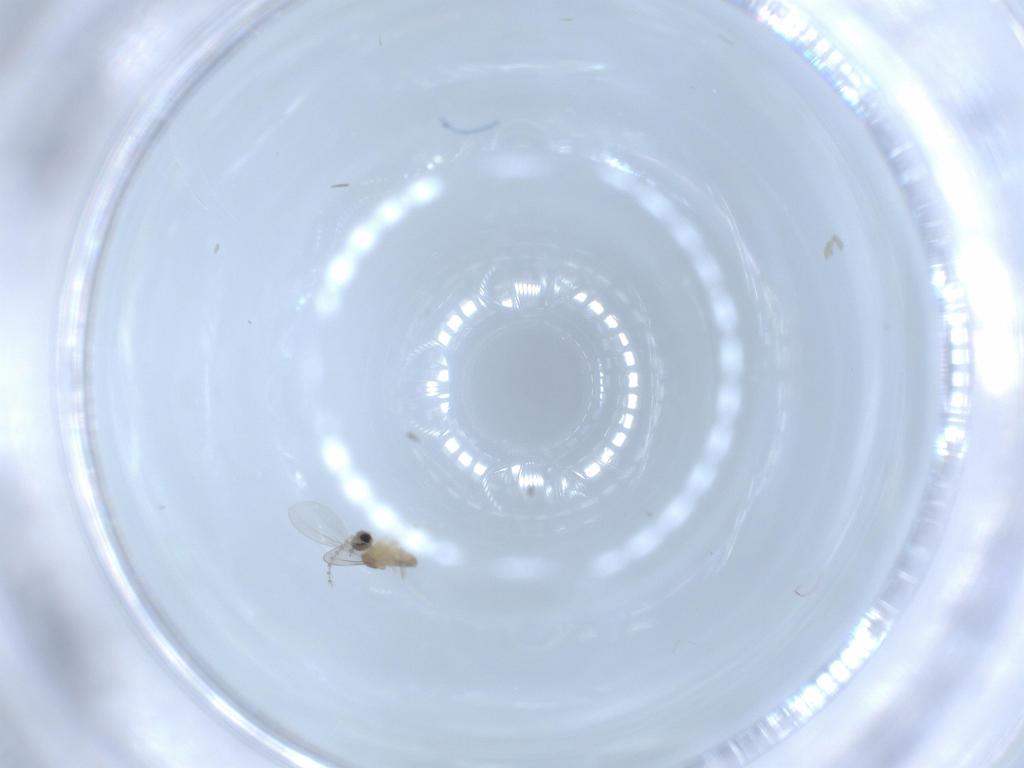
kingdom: Animalia
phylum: Arthropoda
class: Insecta
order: Diptera
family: Cecidomyiidae
